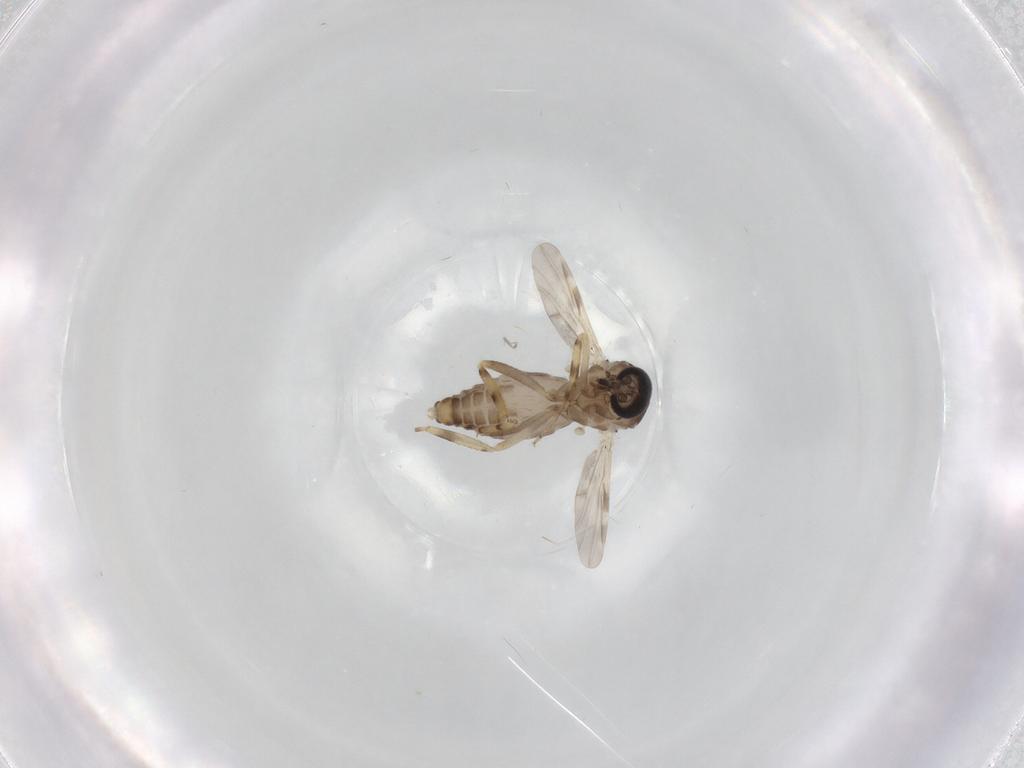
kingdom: Animalia
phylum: Arthropoda
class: Insecta
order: Diptera
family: Ceratopogonidae
